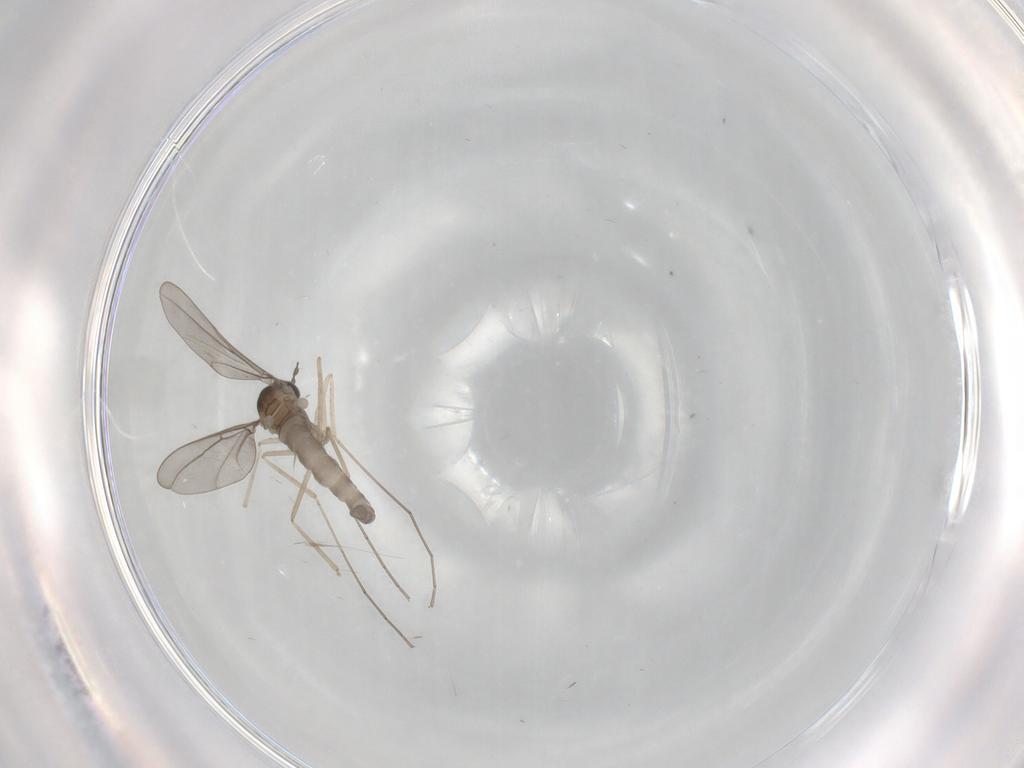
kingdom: Animalia
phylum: Arthropoda
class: Insecta
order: Diptera
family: Cecidomyiidae
